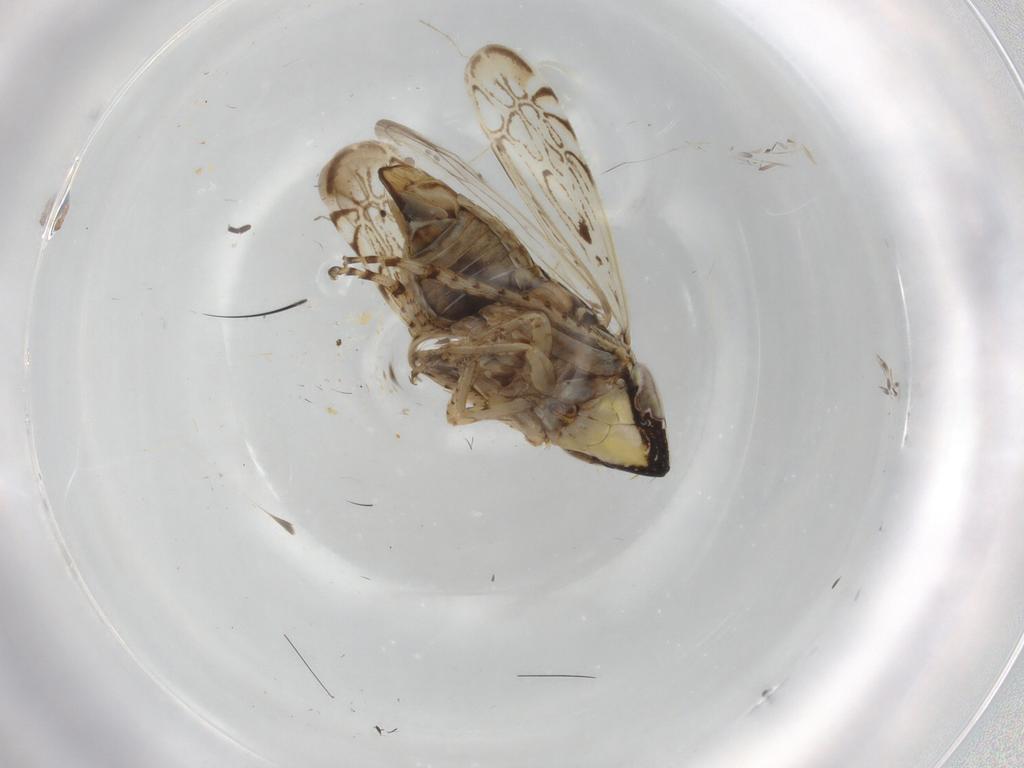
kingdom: Animalia
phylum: Arthropoda
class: Insecta
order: Hemiptera
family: Cicadellidae
